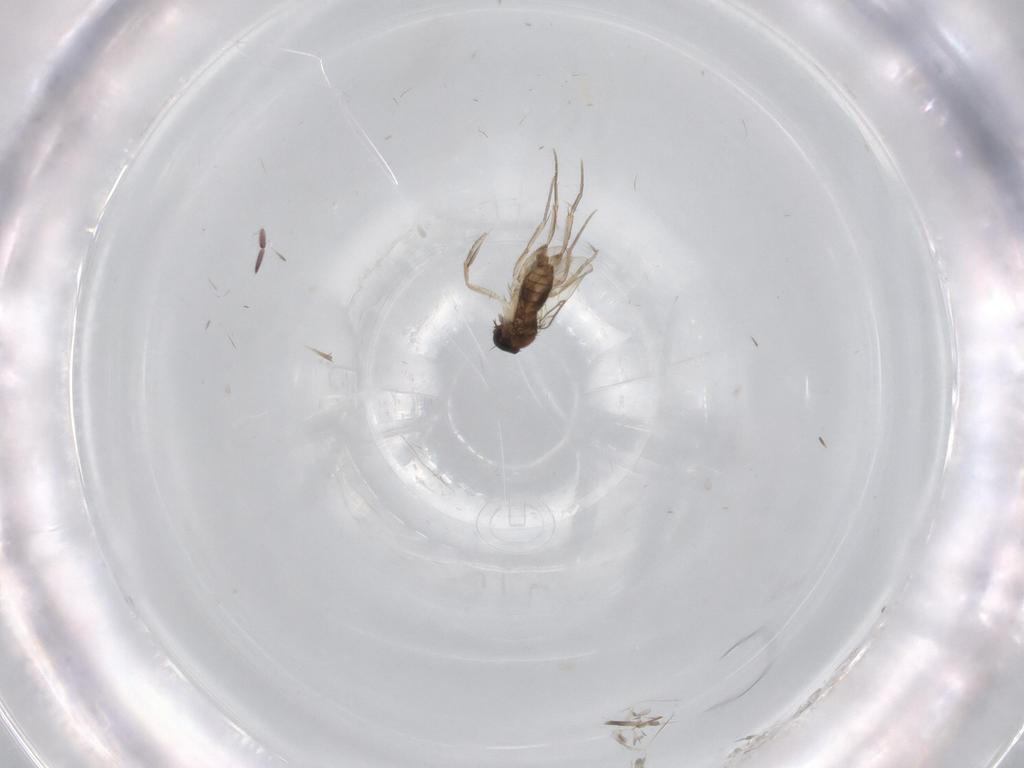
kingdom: Animalia
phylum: Arthropoda
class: Insecta
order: Diptera
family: Phoridae
